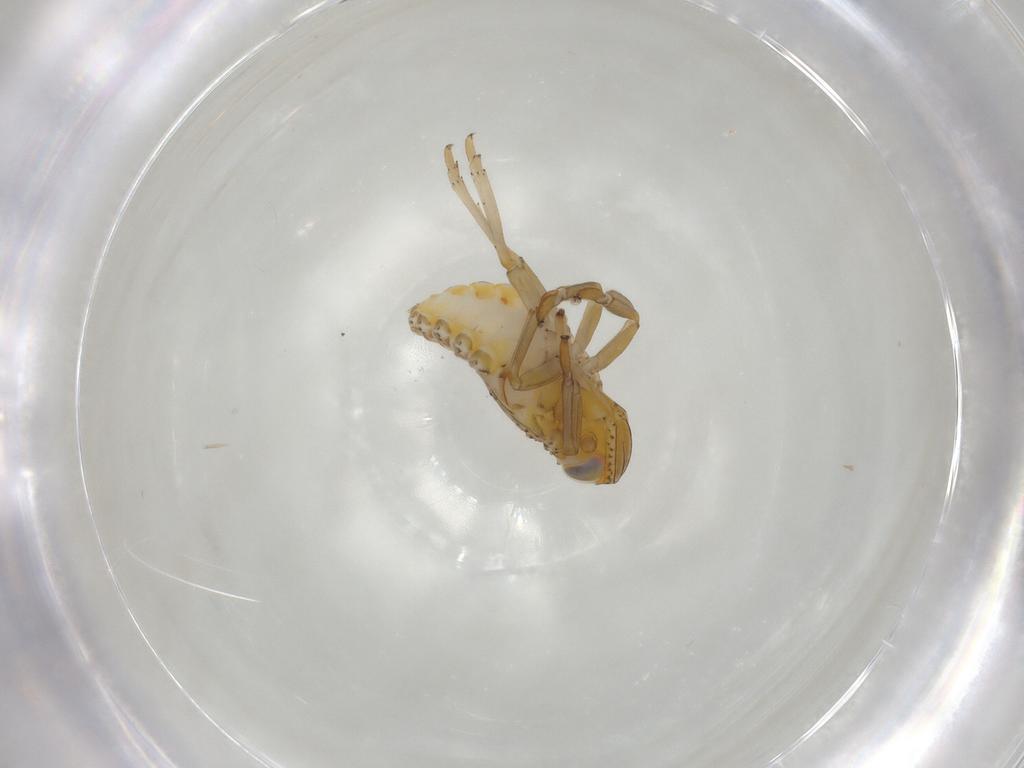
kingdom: Animalia
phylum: Arthropoda
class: Insecta
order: Hemiptera
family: Issidae
